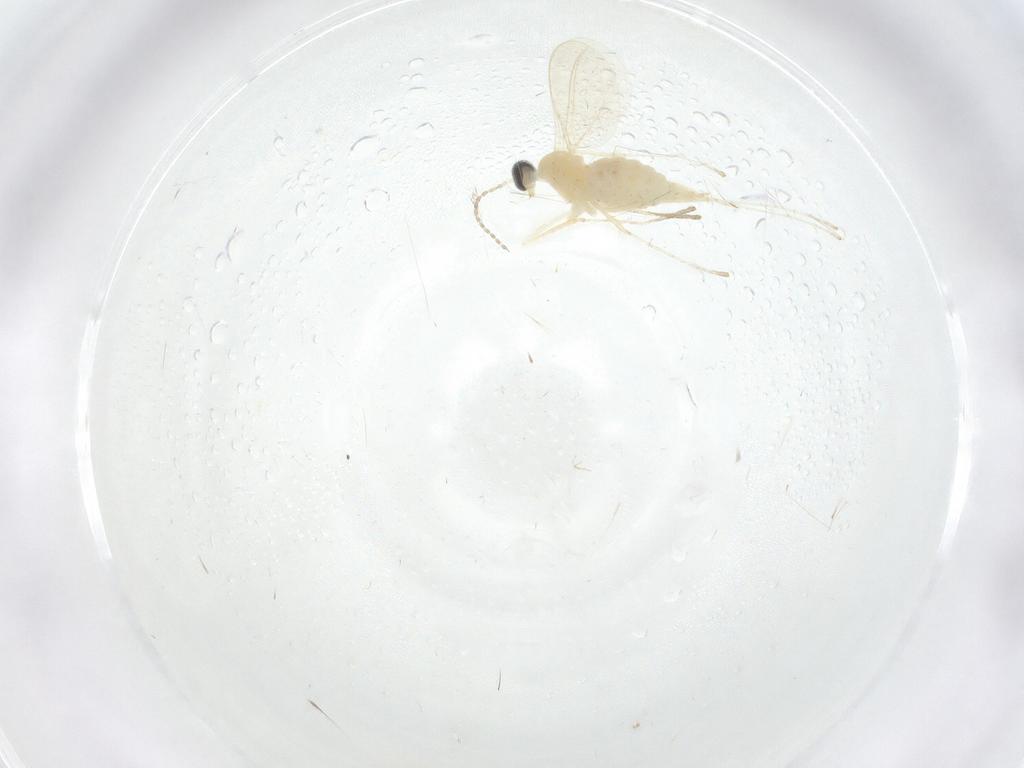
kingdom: Animalia
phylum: Arthropoda
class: Insecta
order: Diptera
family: Cecidomyiidae
